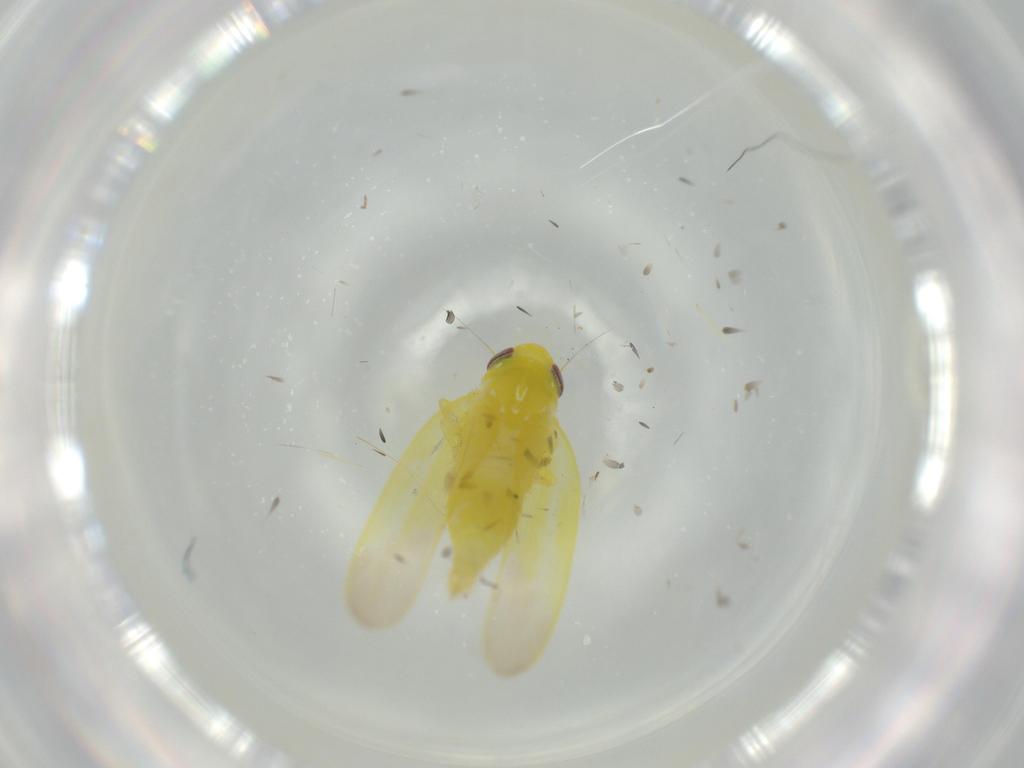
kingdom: Animalia
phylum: Arthropoda
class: Insecta
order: Hemiptera
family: Cicadellidae
